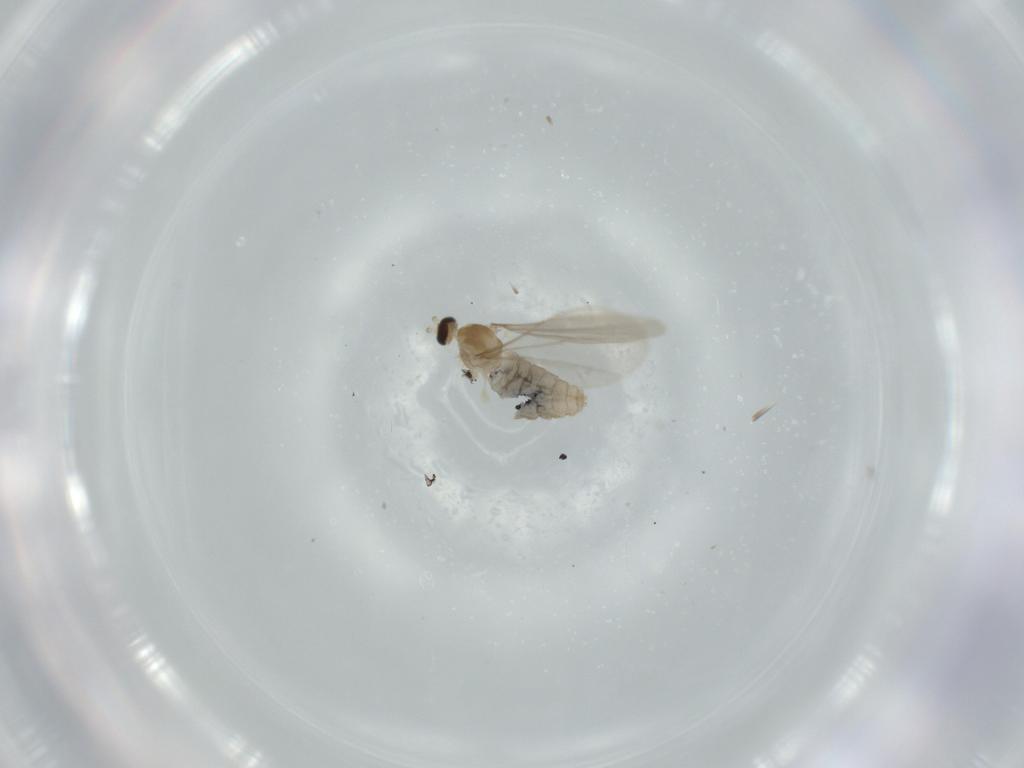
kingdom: Animalia
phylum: Arthropoda
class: Insecta
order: Diptera
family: Cecidomyiidae
